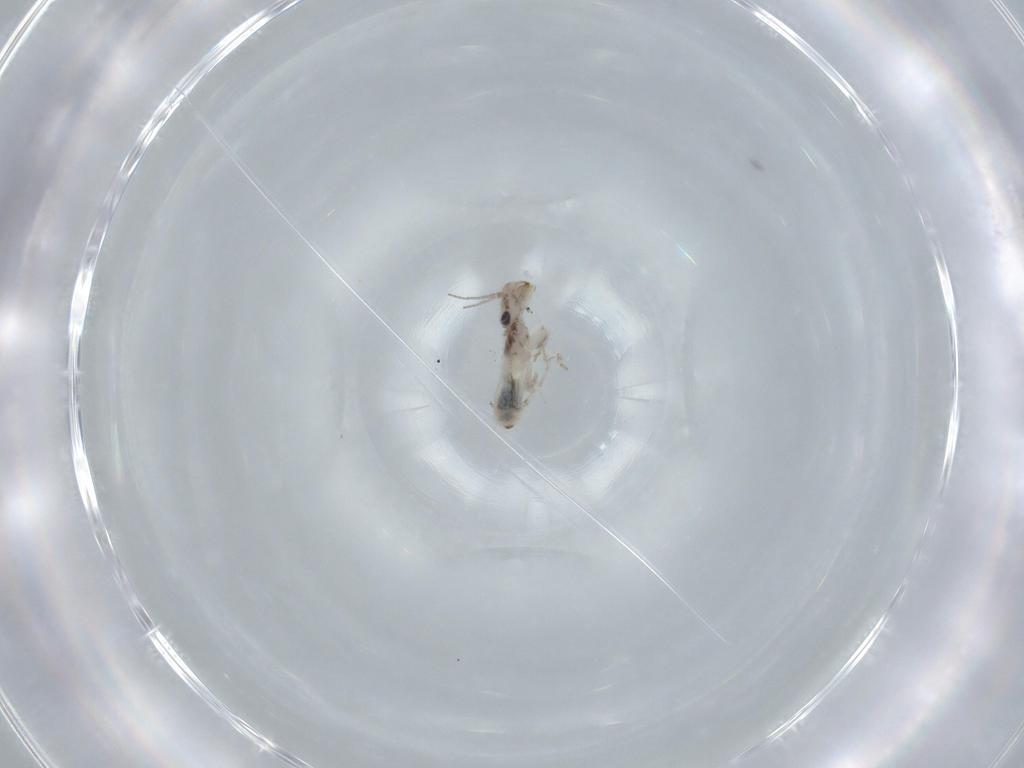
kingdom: Animalia
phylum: Arthropoda
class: Insecta
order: Psocodea
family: Lepidopsocidae
